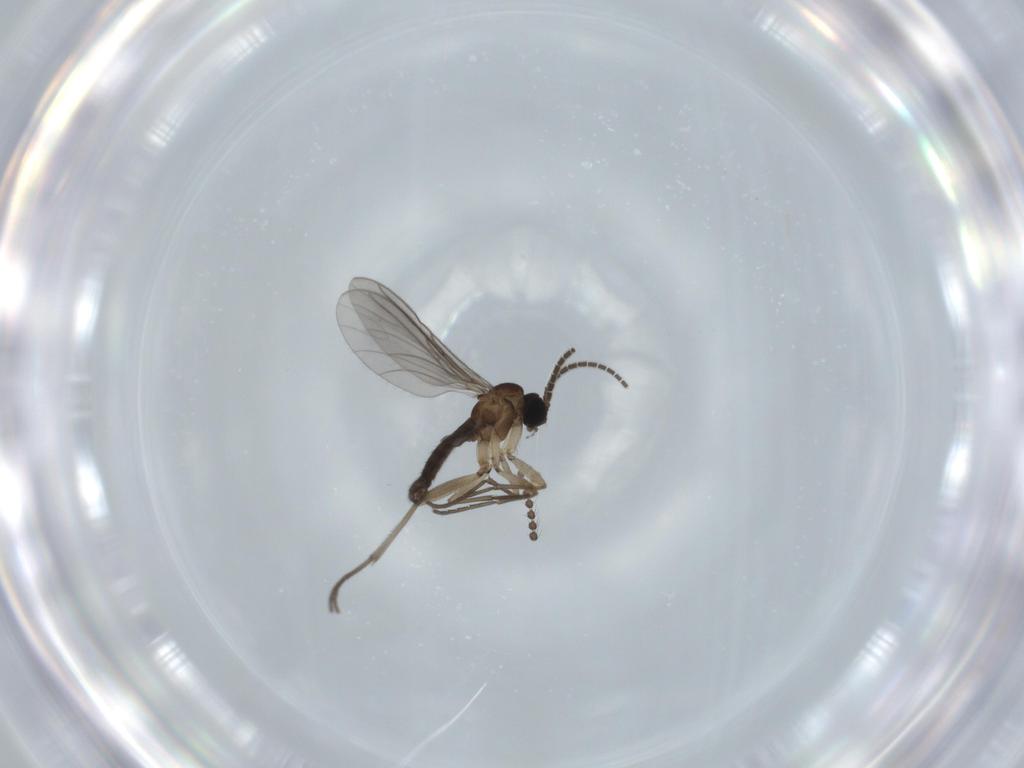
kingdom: Animalia
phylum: Arthropoda
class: Insecta
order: Diptera
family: Sciaridae
